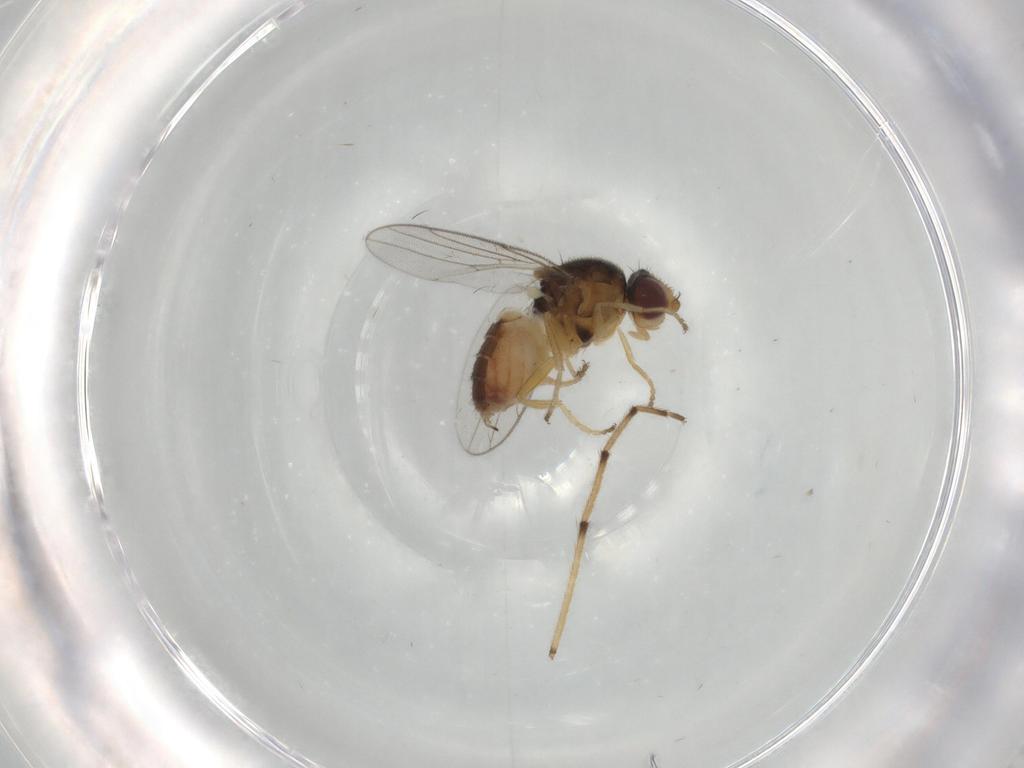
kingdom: Animalia
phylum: Arthropoda
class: Insecta
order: Diptera
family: Chloropidae
